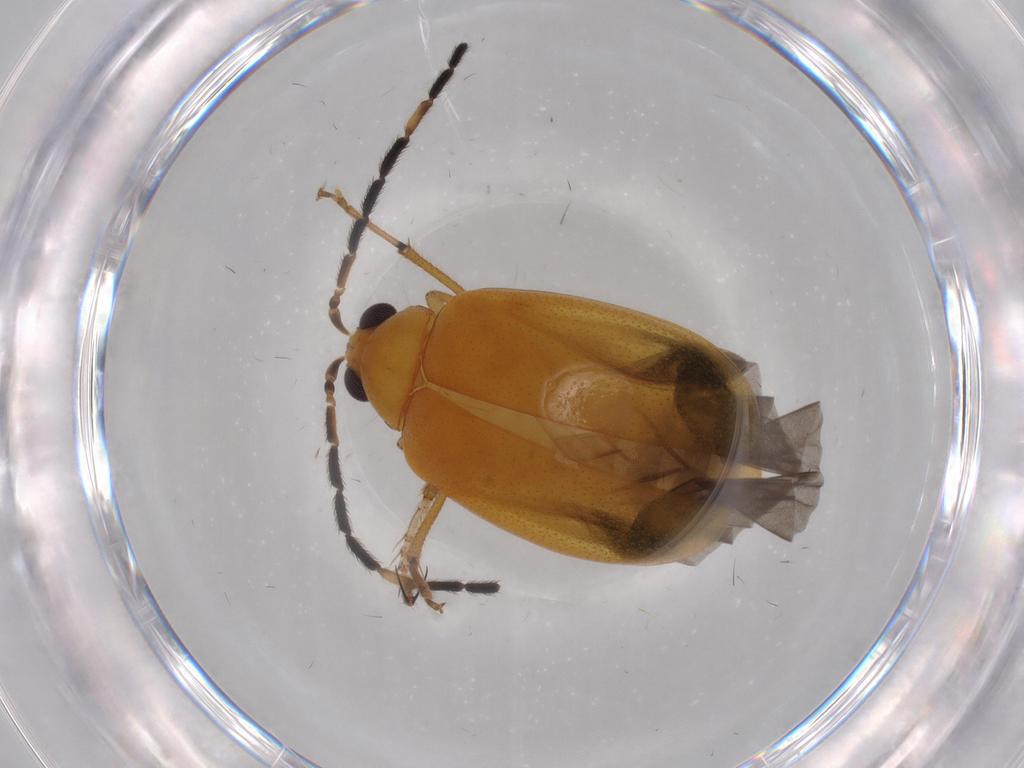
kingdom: Animalia
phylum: Arthropoda
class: Insecta
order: Coleoptera
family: Chrysomelidae
